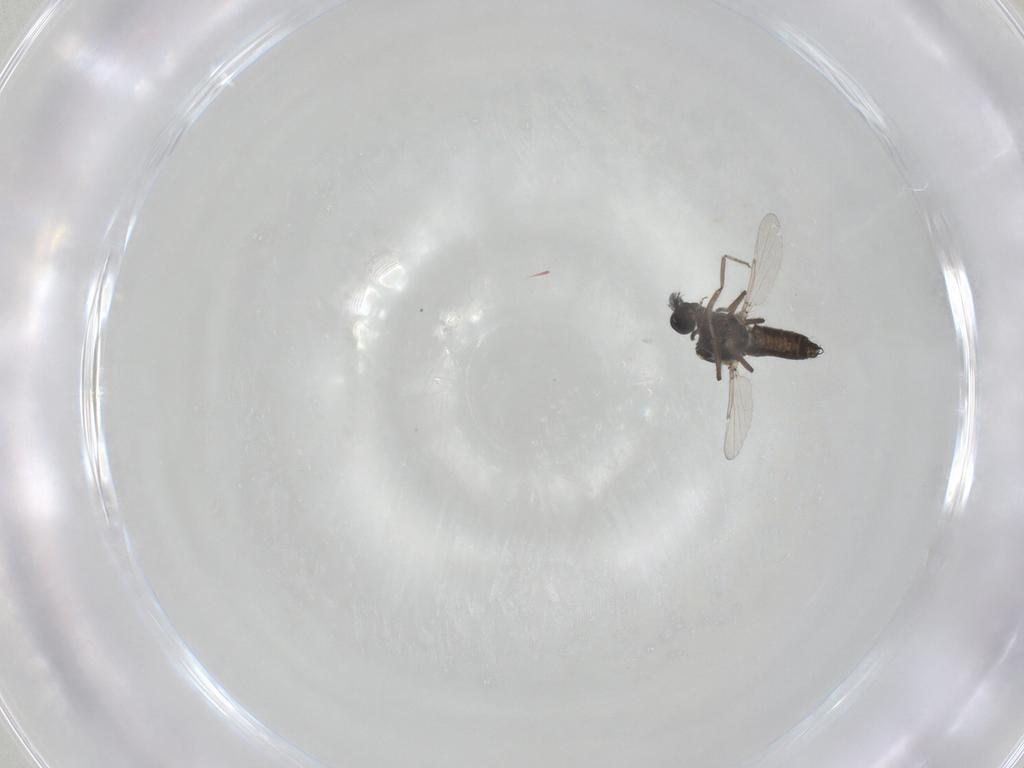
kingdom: Animalia
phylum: Arthropoda
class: Insecta
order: Diptera
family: Ceratopogonidae
